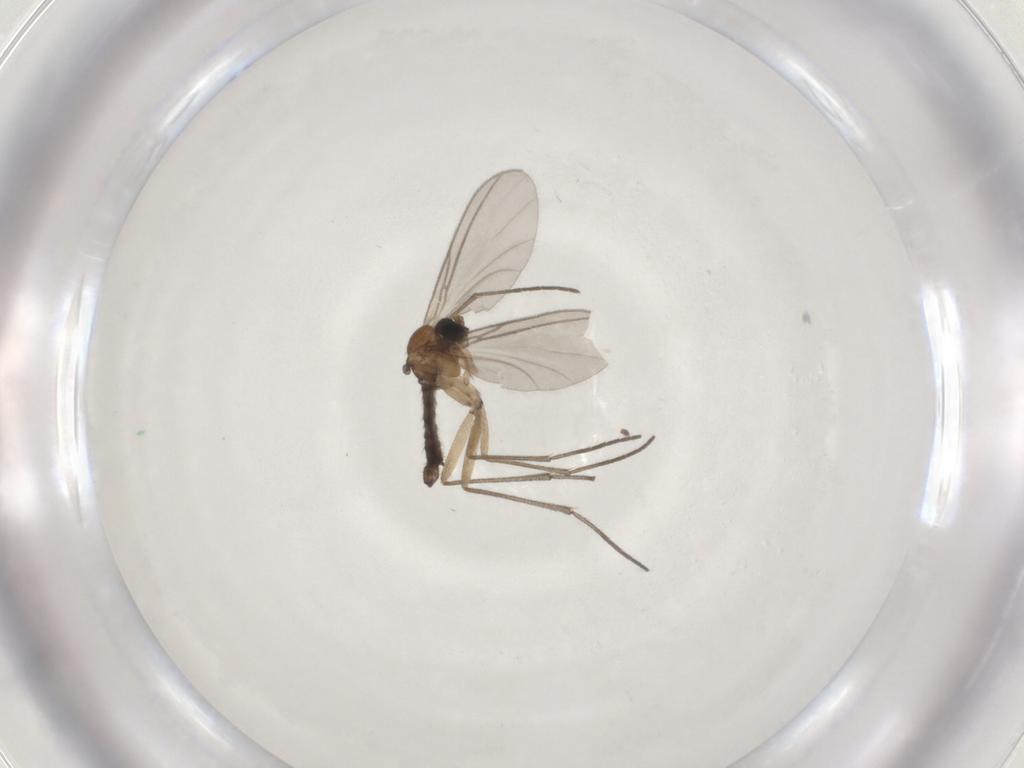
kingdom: Animalia
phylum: Arthropoda
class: Insecta
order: Diptera
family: Sciaridae
